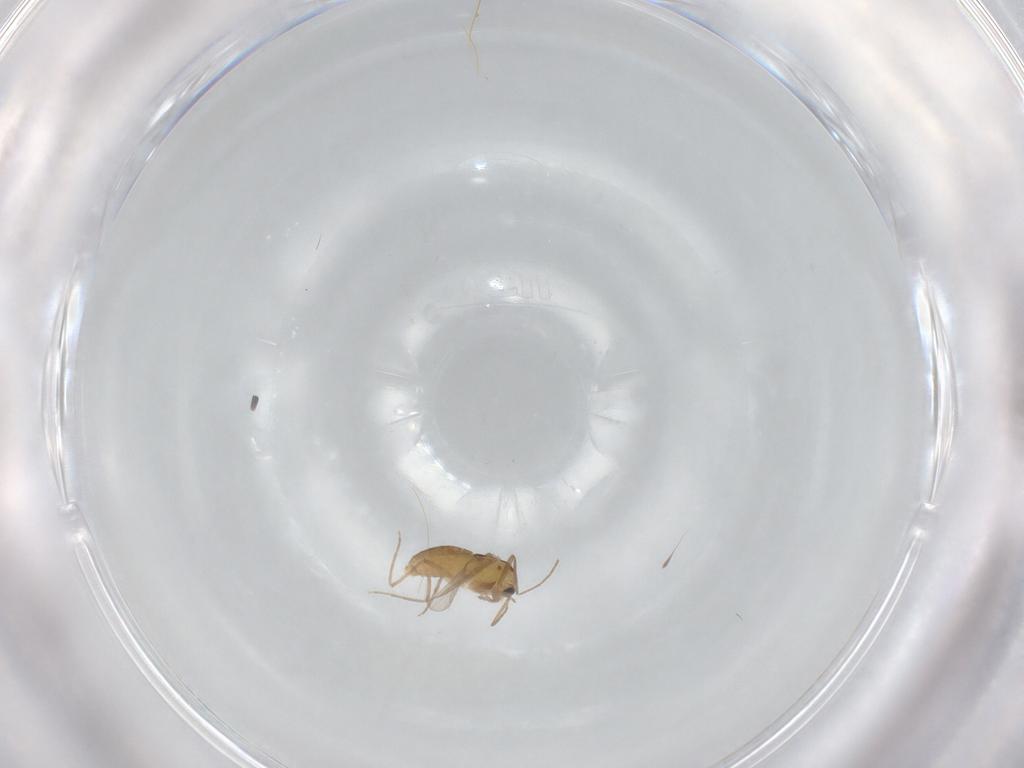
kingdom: Animalia
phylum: Arthropoda
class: Insecta
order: Diptera
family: Chironomidae
